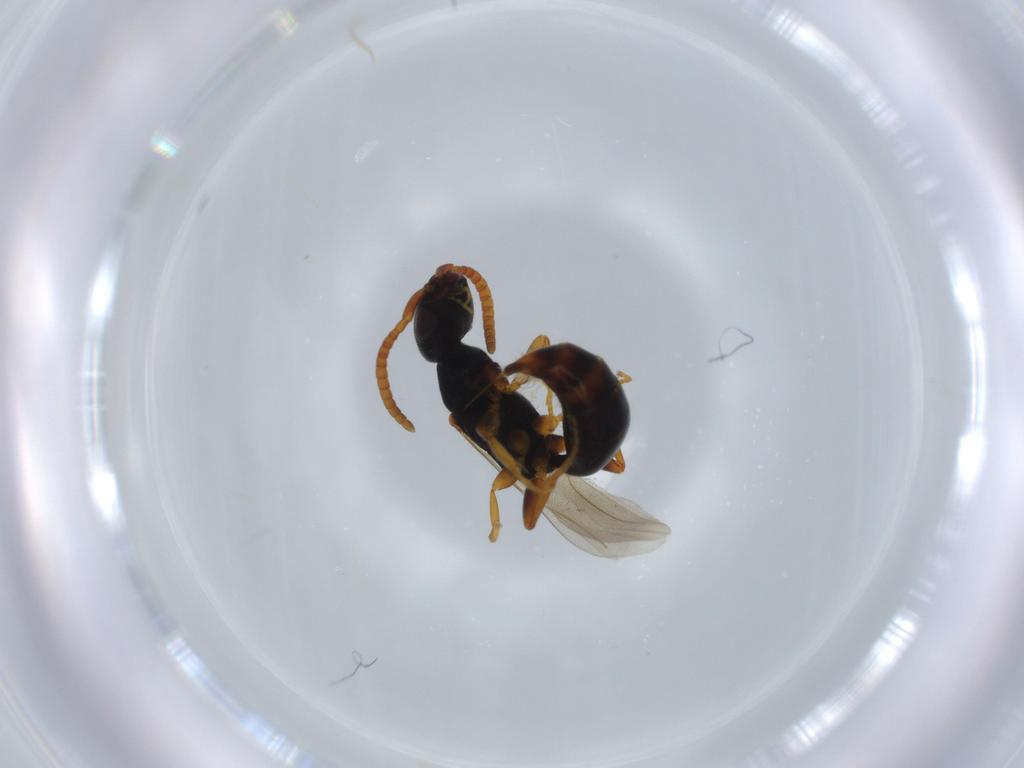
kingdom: Animalia
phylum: Arthropoda
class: Insecta
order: Hymenoptera
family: Bethylidae
